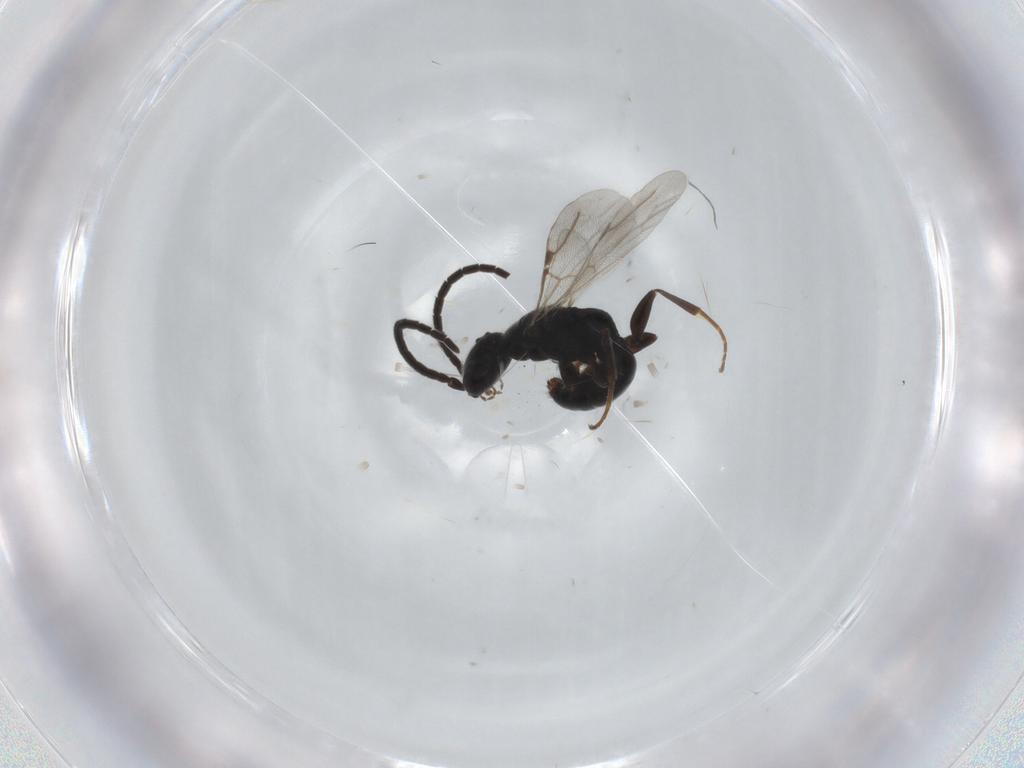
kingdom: Animalia
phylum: Arthropoda
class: Insecta
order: Hymenoptera
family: Bethylidae
